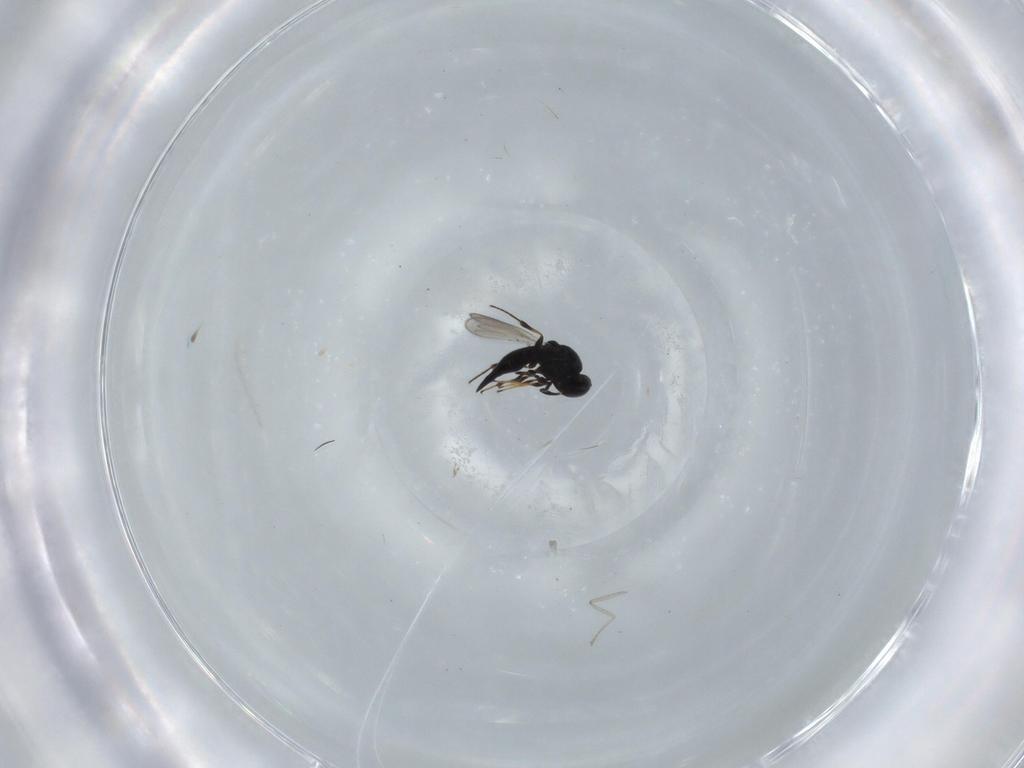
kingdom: Animalia
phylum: Arthropoda
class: Insecta
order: Hymenoptera
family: Platygastridae
